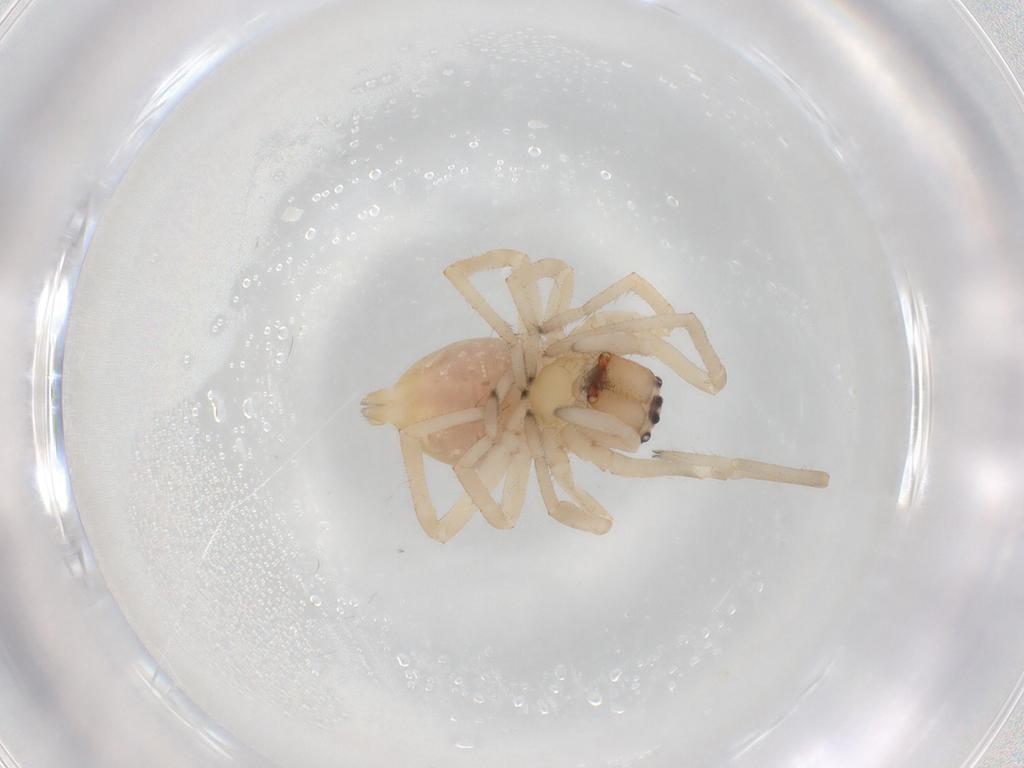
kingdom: Animalia
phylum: Arthropoda
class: Arachnida
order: Araneae
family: Cheiracanthiidae
